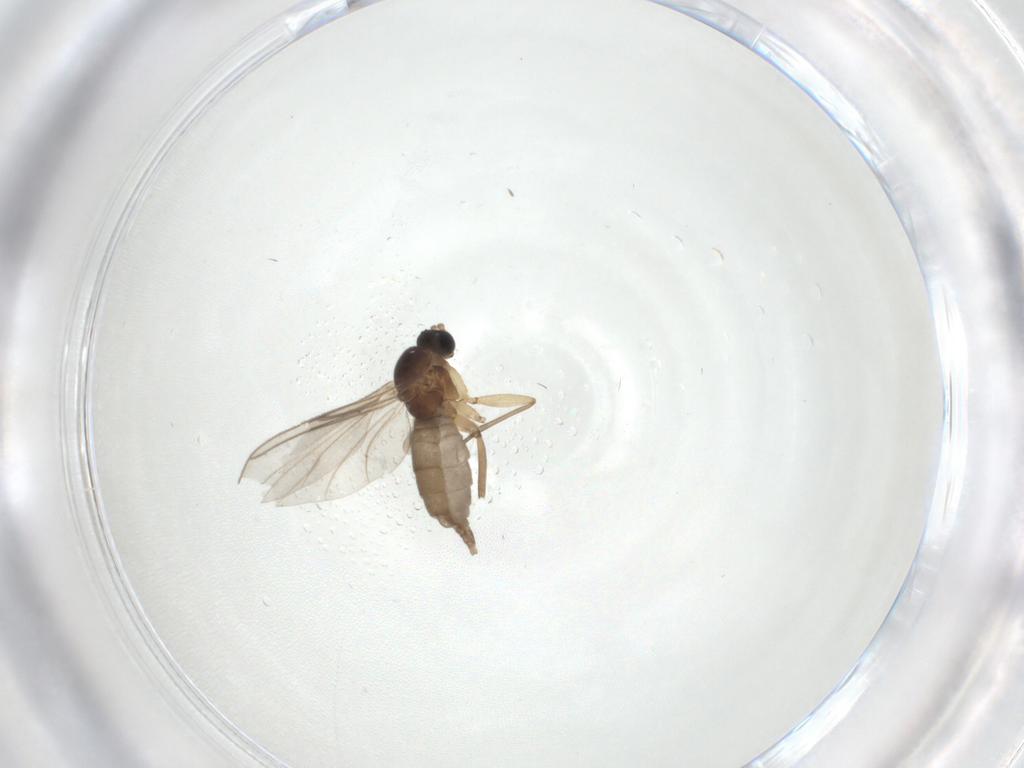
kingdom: Animalia
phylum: Arthropoda
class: Insecta
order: Diptera
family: Sciaridae
